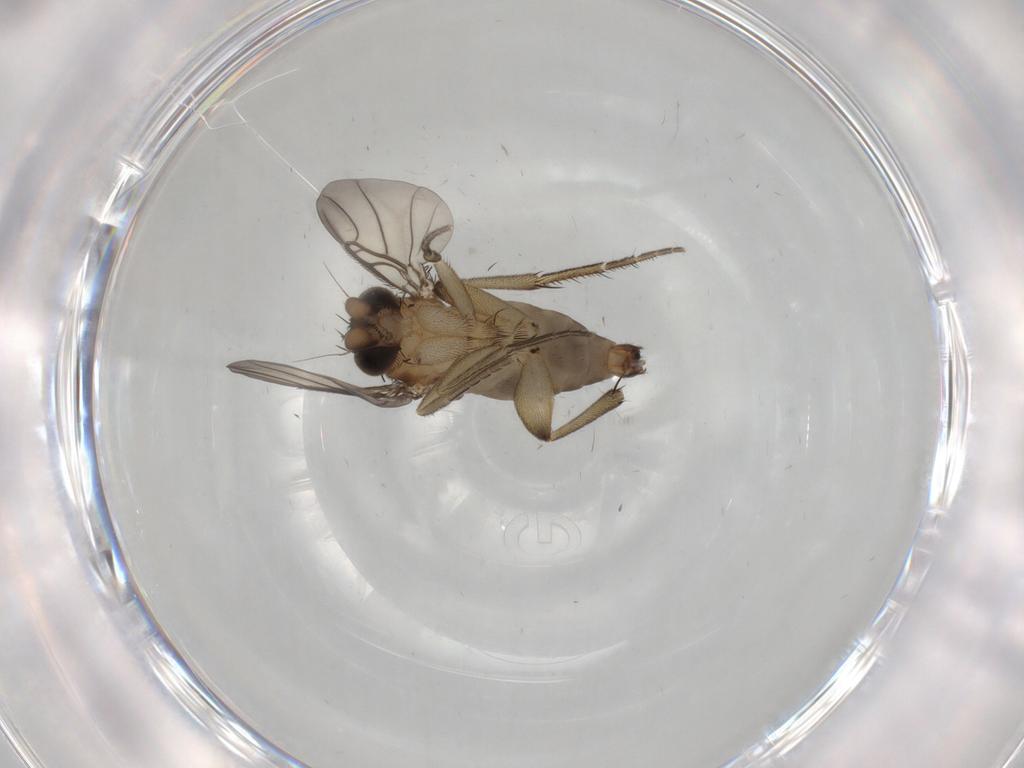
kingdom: Animalia
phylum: Arthropoda
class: Insecta
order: Diptera
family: Phoridae
